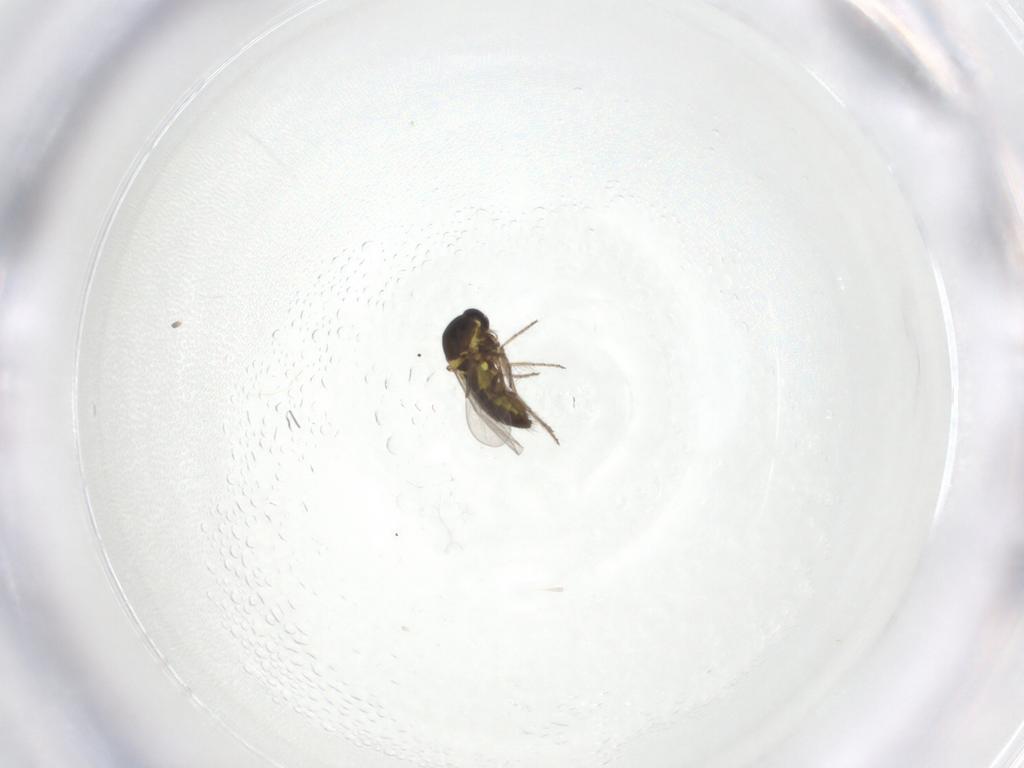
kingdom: Animalia
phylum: Arthropoda
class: Insecta
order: Diptera
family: Ceratopogonidae
